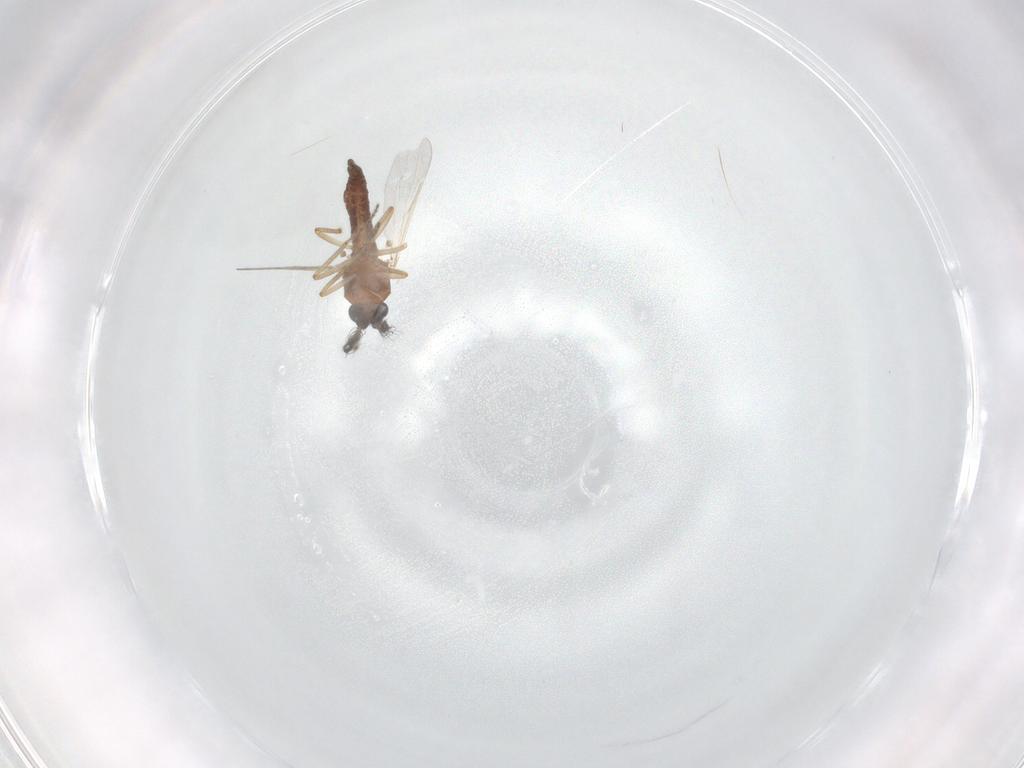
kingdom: Animalia
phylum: Arthropoda
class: Insecta
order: Diptera
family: Ceratopogonidae
